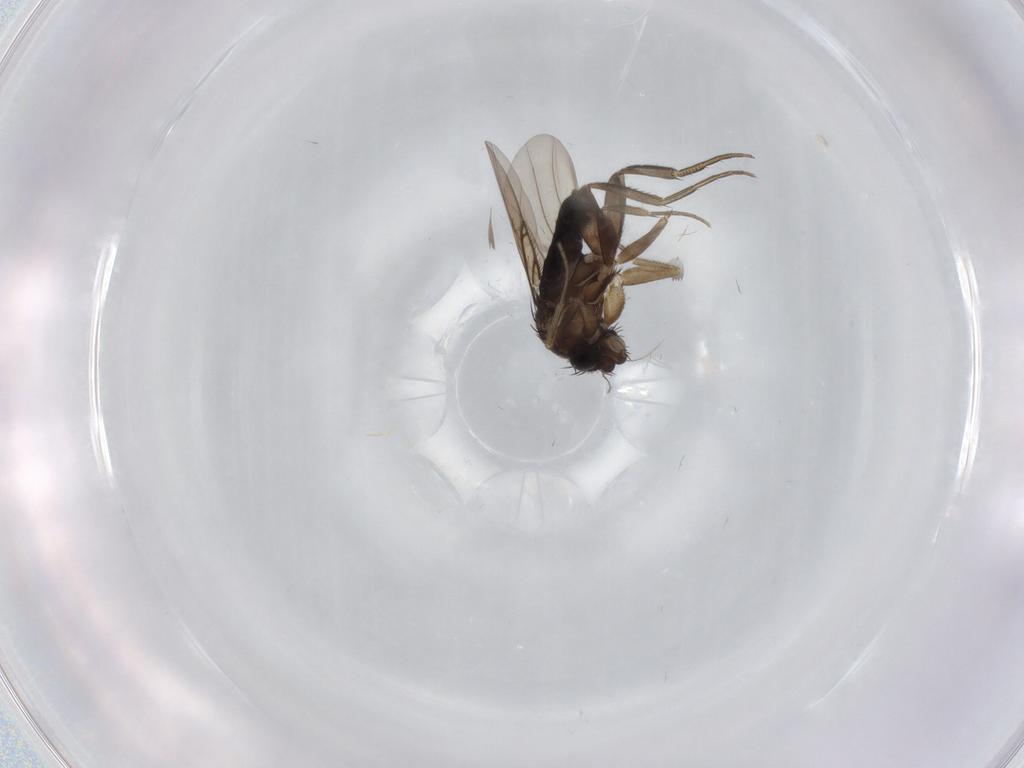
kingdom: Animalia
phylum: Arthropoda
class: Insecta
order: Diptera
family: Phoridae
